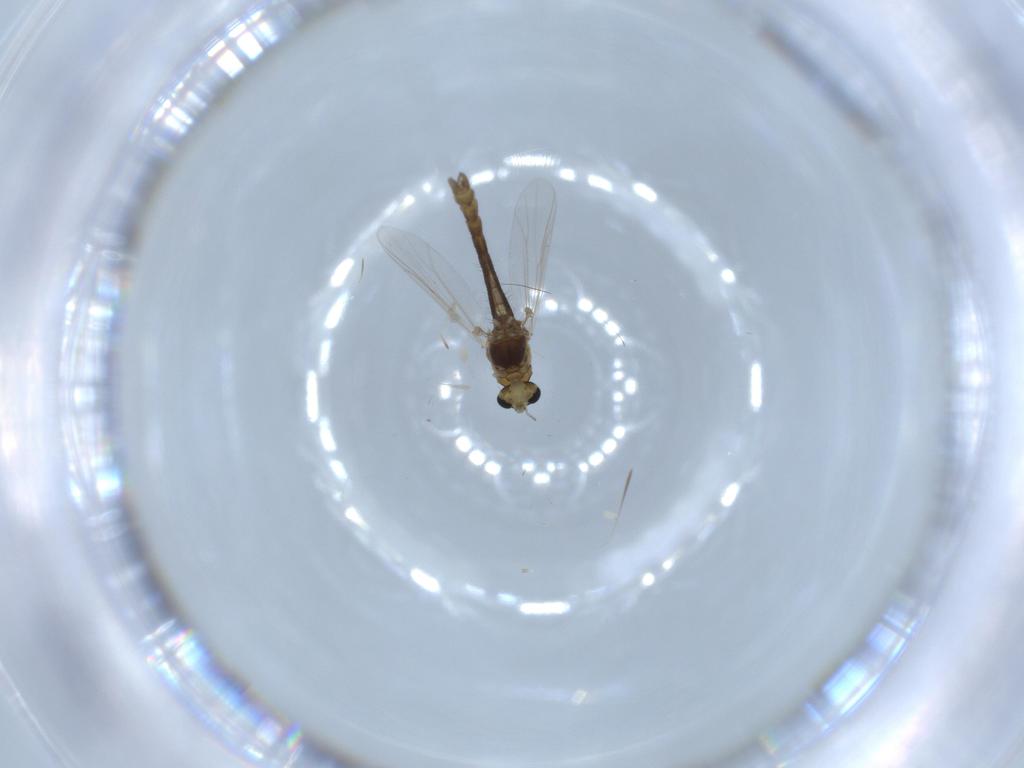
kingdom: Animalia
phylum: Arthropoda
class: Insecta
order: Diptera
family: Chironomidae
